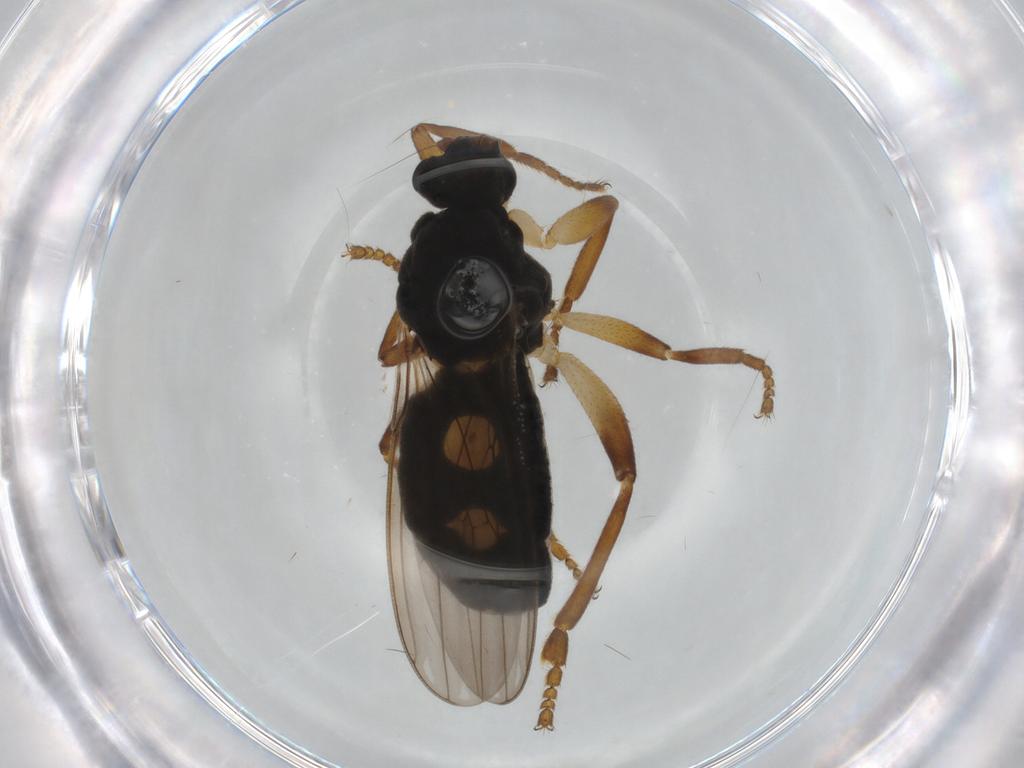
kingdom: Animalia
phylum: Arthropoda
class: Insecta
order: Diptera
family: Sphaeroceridae
